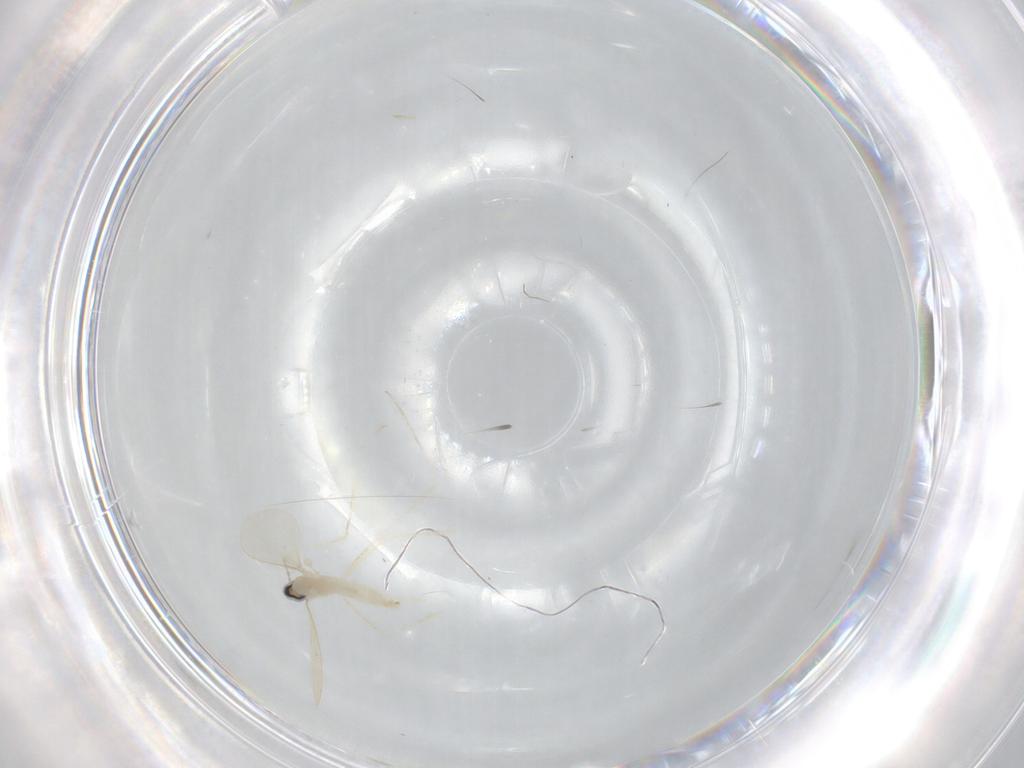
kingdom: Animalia
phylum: Arthropoda
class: Insecta
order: Diptera
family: Cecidomyiidae
